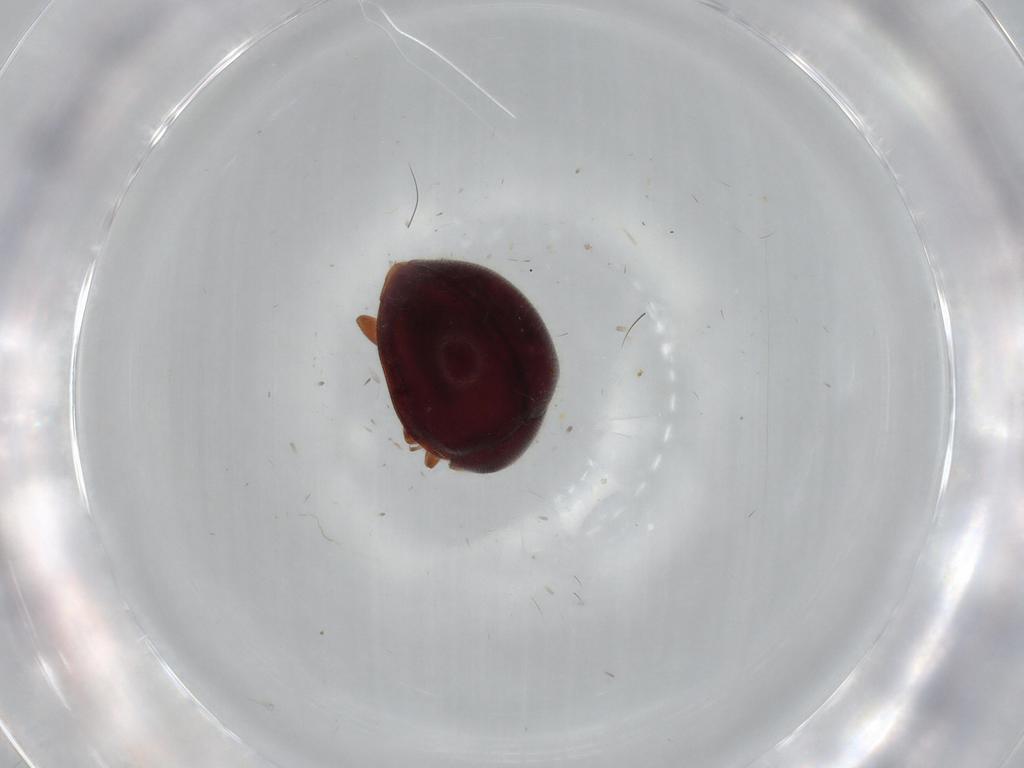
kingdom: Animalia
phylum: Arthropoda
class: Insecta
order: Coleoptera
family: Coccinellidae
